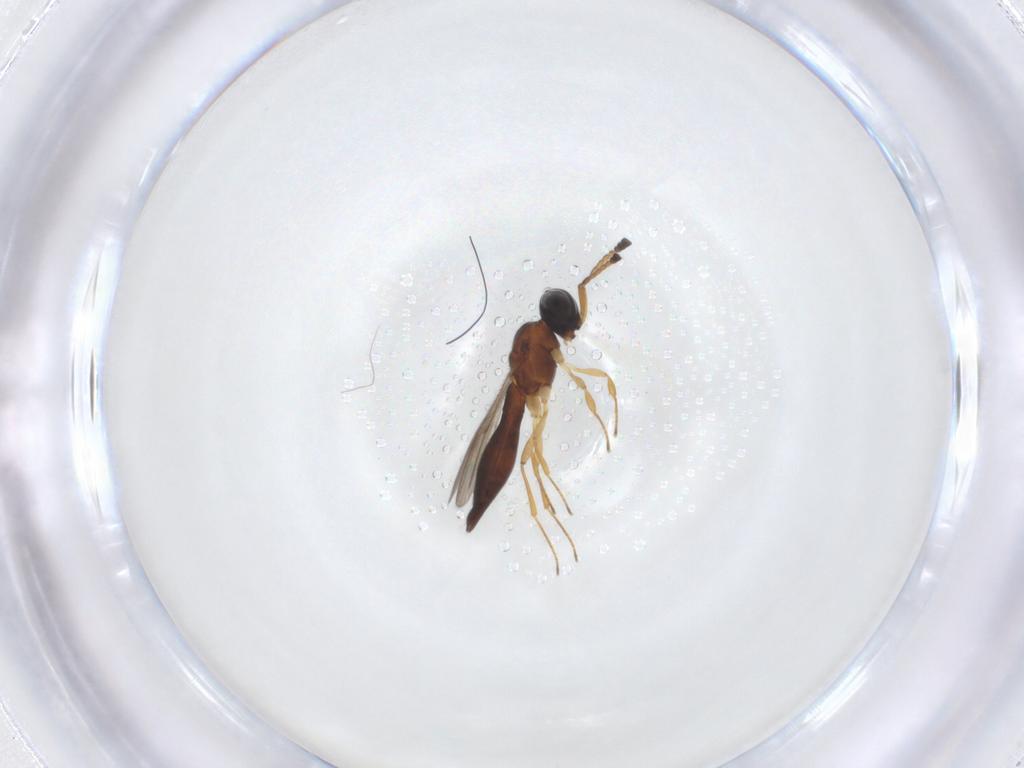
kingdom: Animalia
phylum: Arthropoda
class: Insecta
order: Hymenoptera
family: Scelionidae
